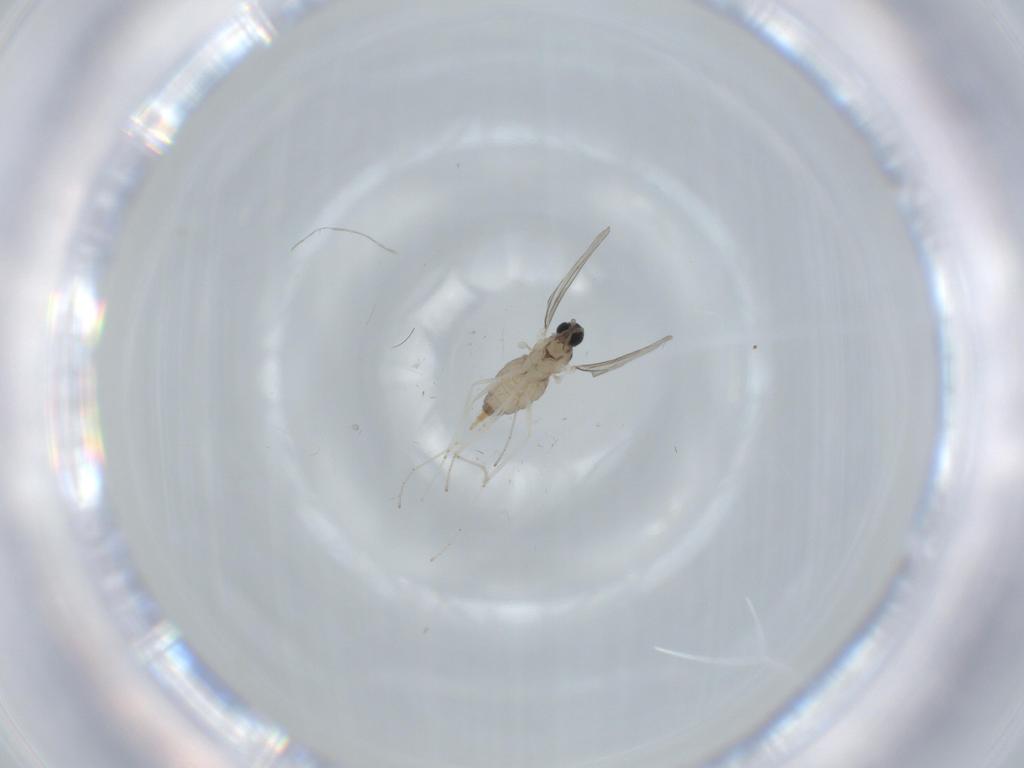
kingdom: Animalia
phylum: Arthropoda
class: Insecta
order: Diptera
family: Cecidomyiidae
